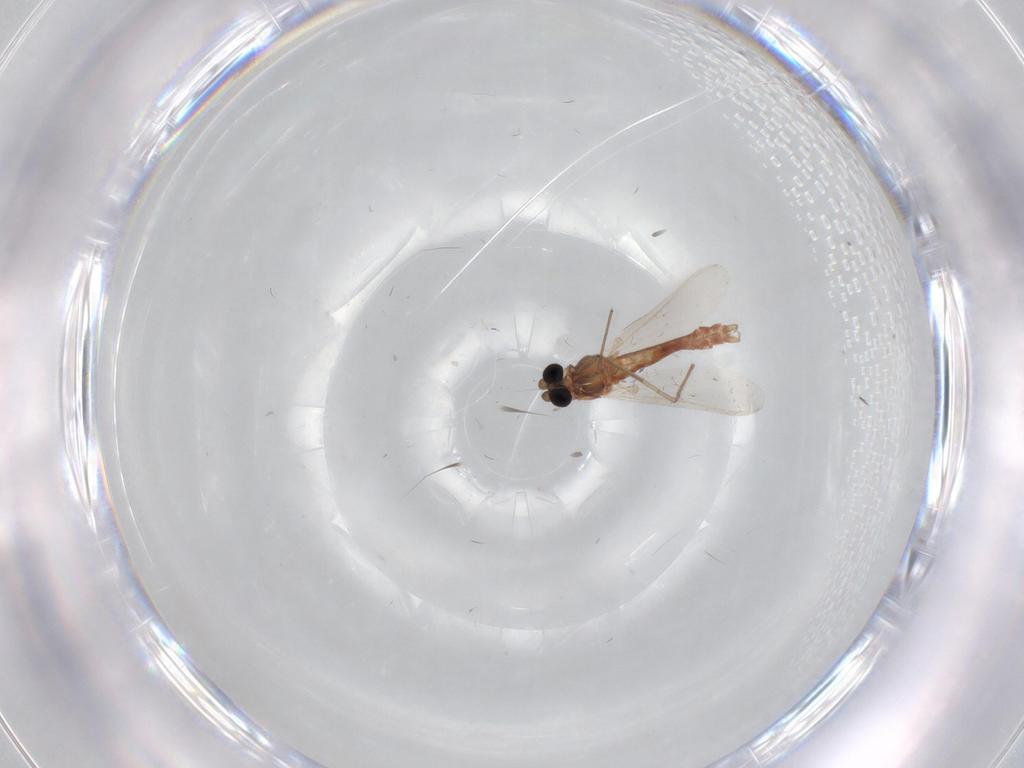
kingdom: Animalia
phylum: Arthropoda
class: Insecta
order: Diptera
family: Chironomidae
